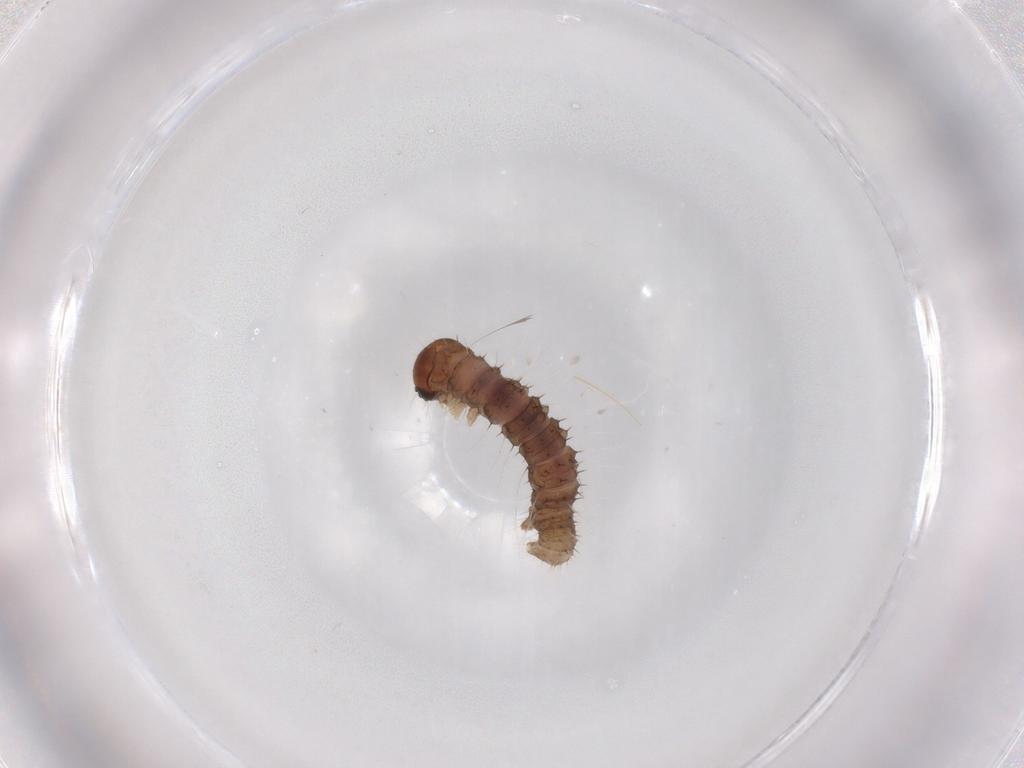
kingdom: Animalia
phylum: Arthropoda
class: Insecta
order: Lepidoptera
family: Geometridae
